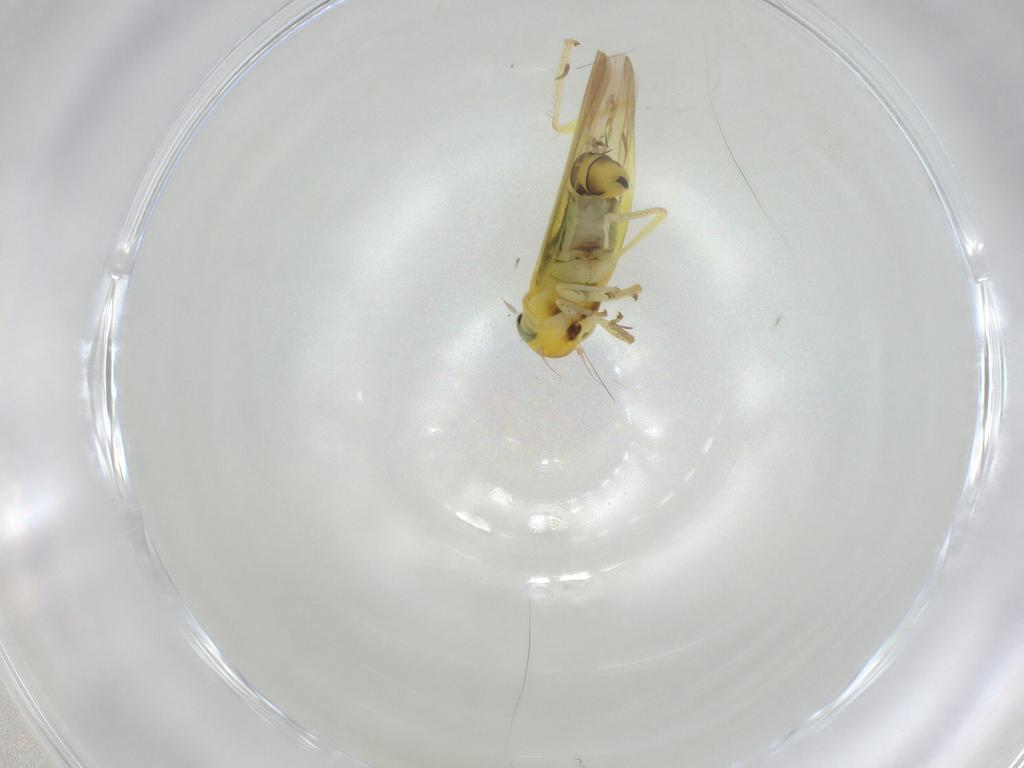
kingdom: Animalia
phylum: Arthropoda
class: Insecta
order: Hemiptera
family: Cicadellidae
